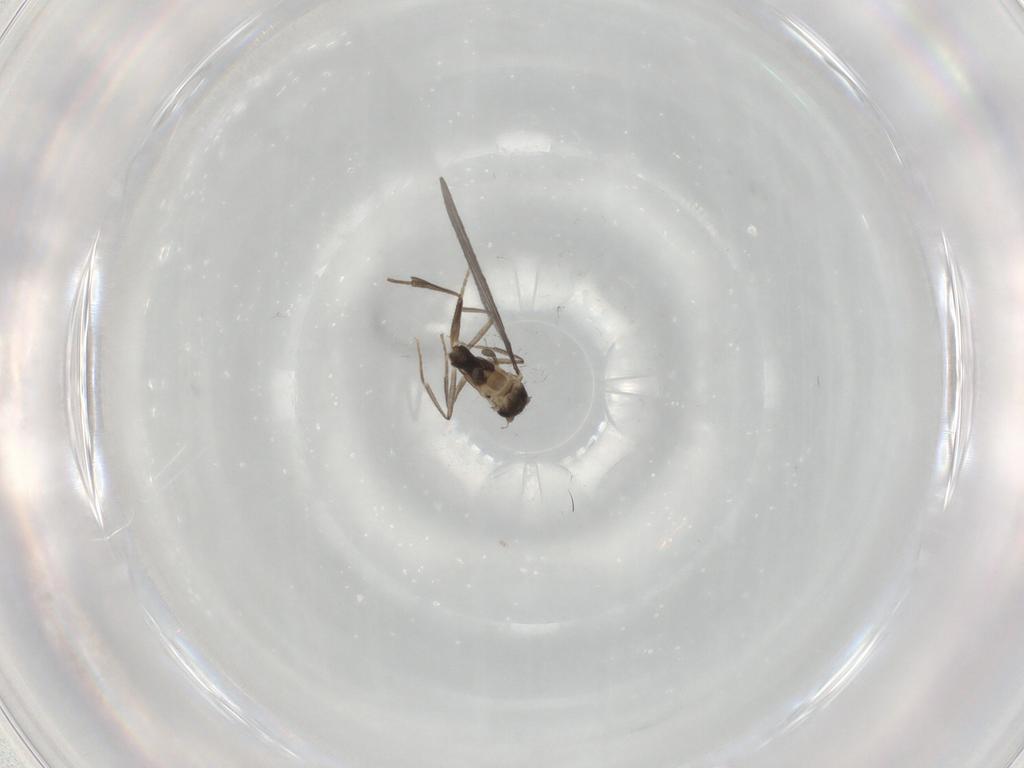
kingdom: Animalia
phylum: Arthropoda
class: Insecta
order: Diptera
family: Phoridae
